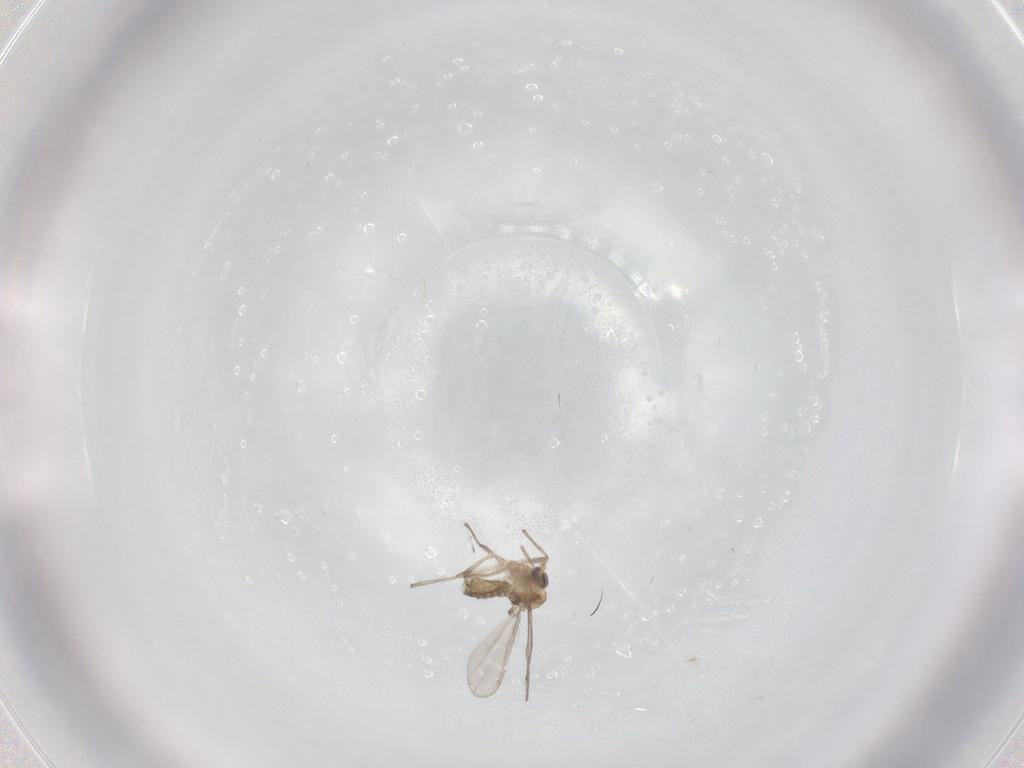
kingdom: Animalia
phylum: Arthropoda
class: Insecta
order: Diptera
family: Chironomidae
